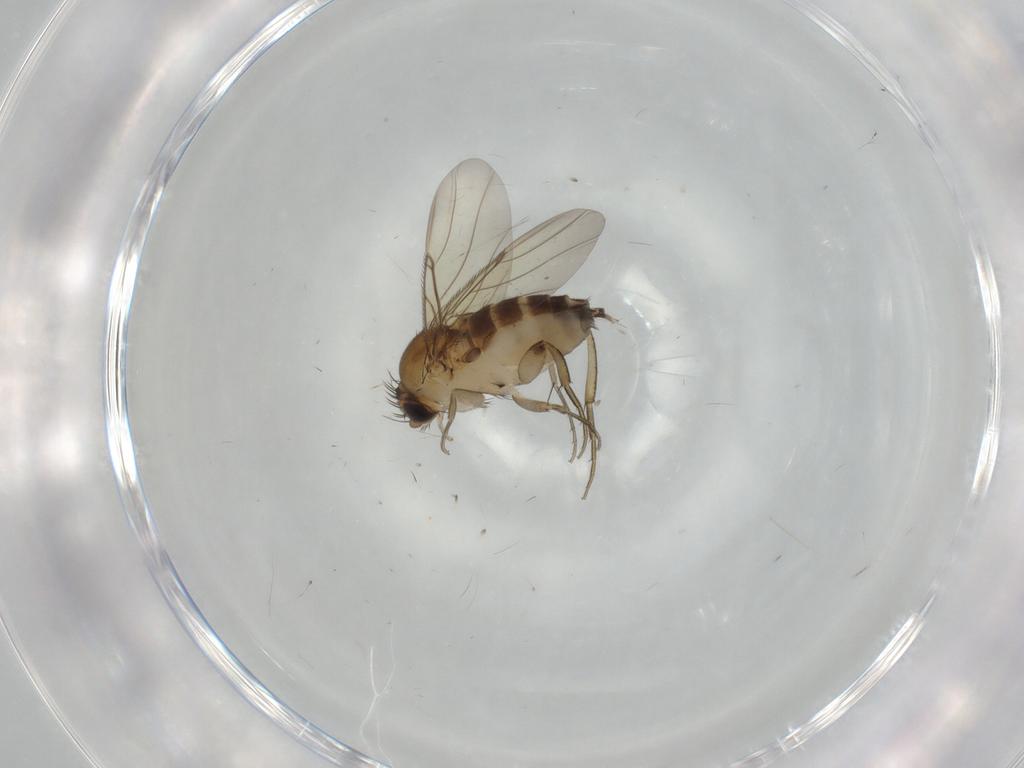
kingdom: Animalia
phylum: Arthropoda
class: Insecta
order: Diptera
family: Phoridae
